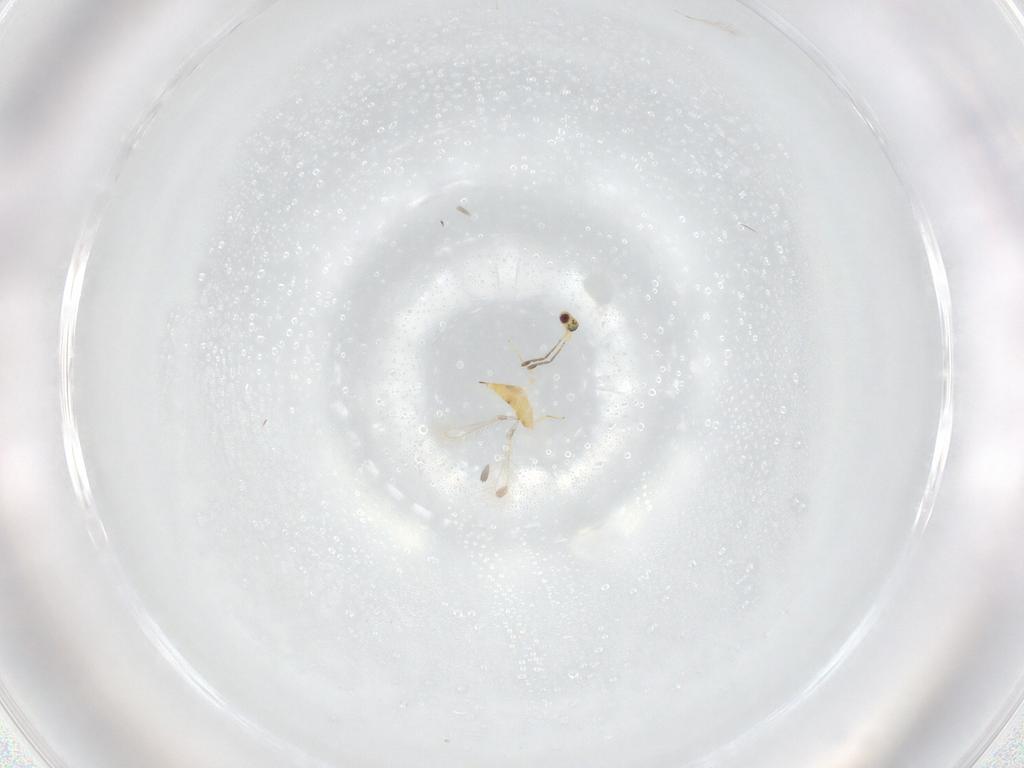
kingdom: Animalia
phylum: Arthropoda
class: Insecta
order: Hymenoptera
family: Mymaridae
